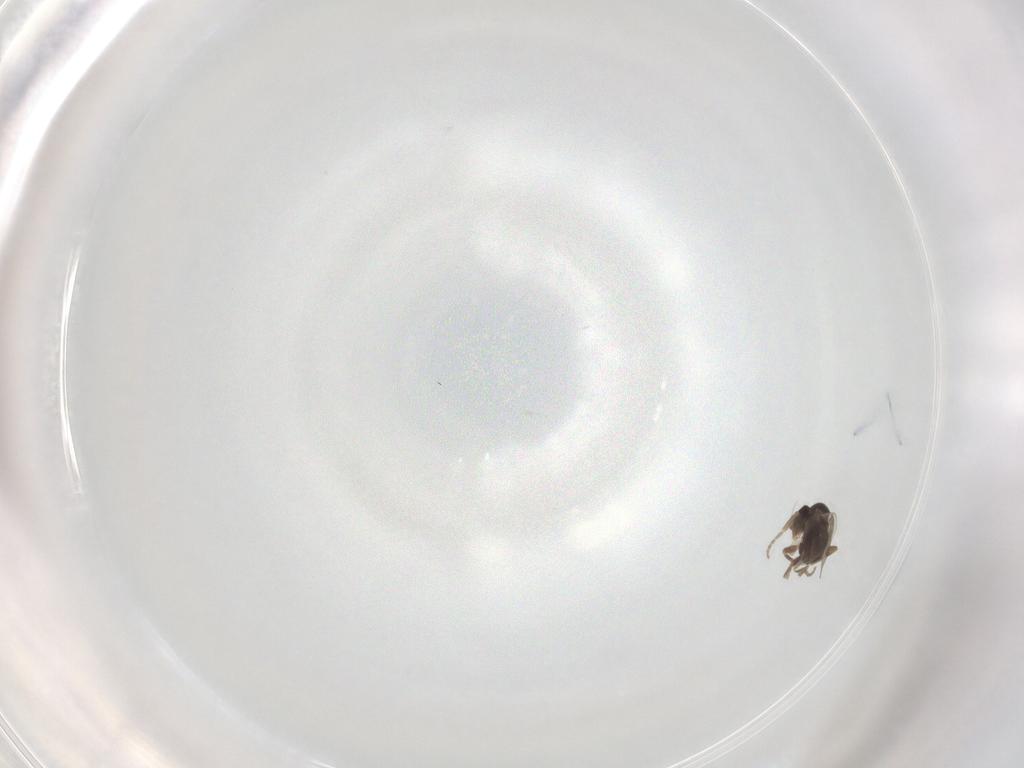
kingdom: Animalia
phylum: Arthropoda
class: Insecta
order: Diptera
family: Phoridae
